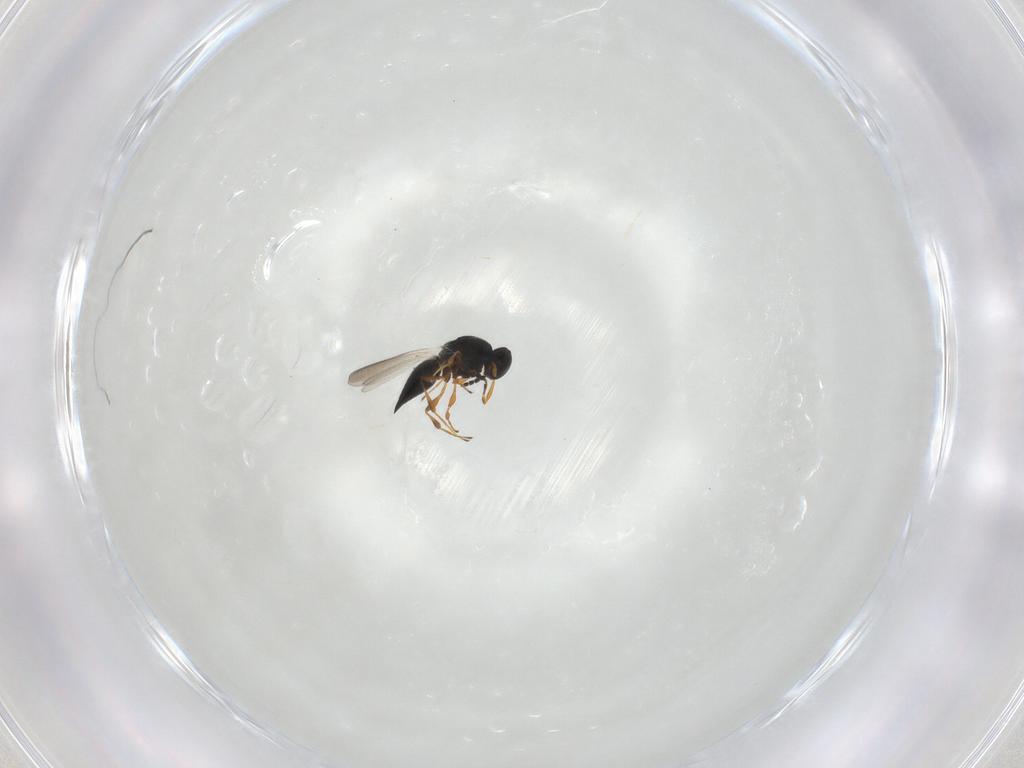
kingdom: Animalia
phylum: Arthropoda
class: Insecta
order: Hymenoptera
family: Platygastridae
